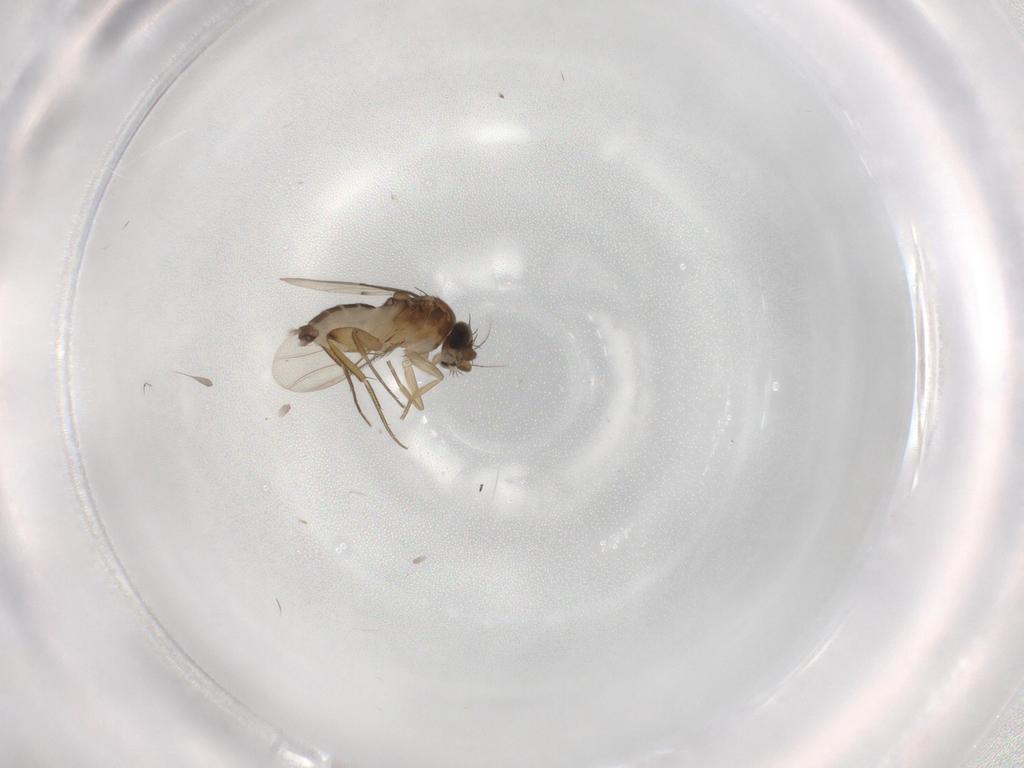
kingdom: Animalia
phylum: Arthropoda
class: Insecta
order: Diptera
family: Phoridae
